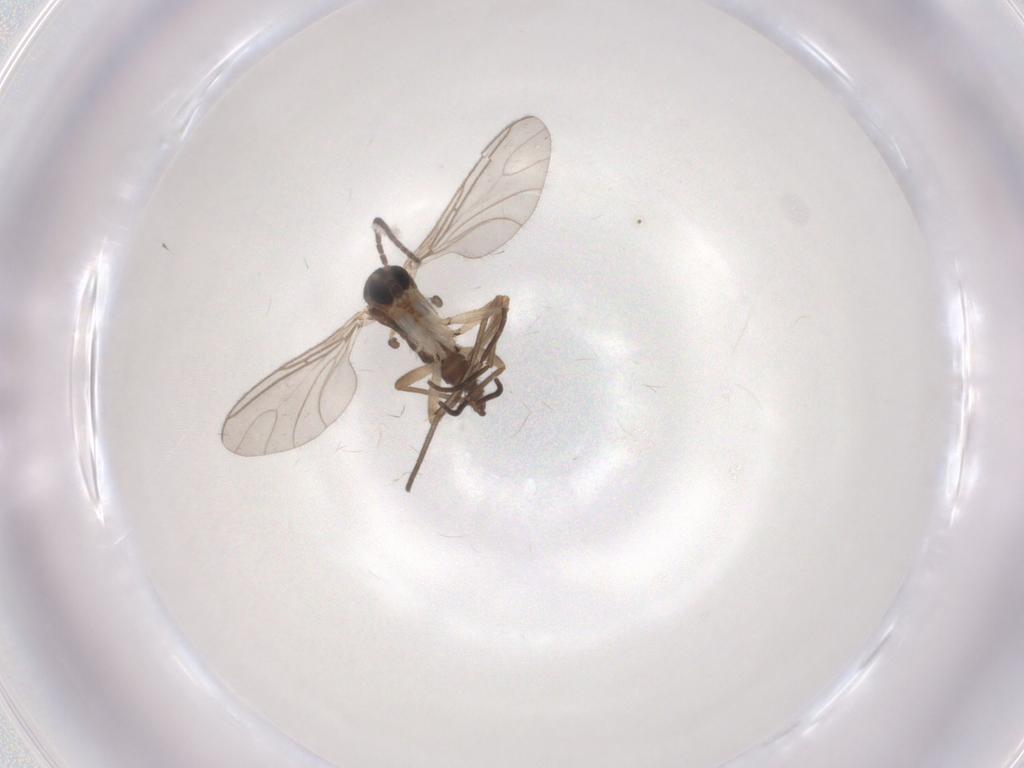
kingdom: Animalia
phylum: Arthropoda
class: Insecta
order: Diptera
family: Sciaridae
